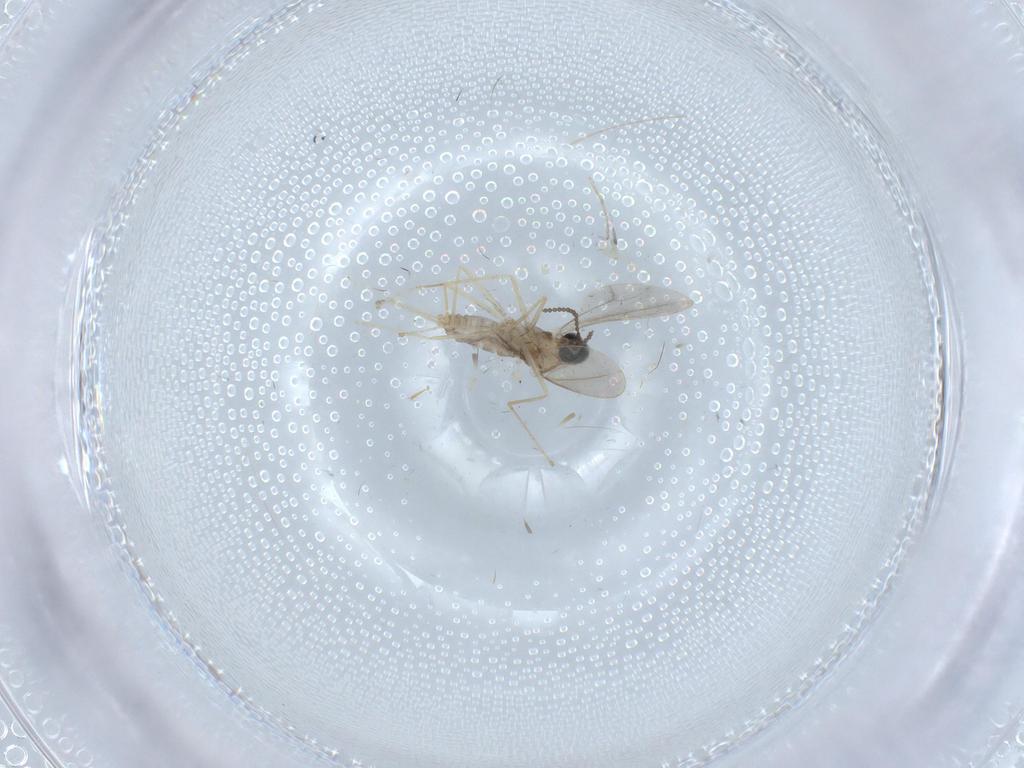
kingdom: Animalia
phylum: Arthropoda
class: Insecta
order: Diptera
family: Cecidomyiidae
